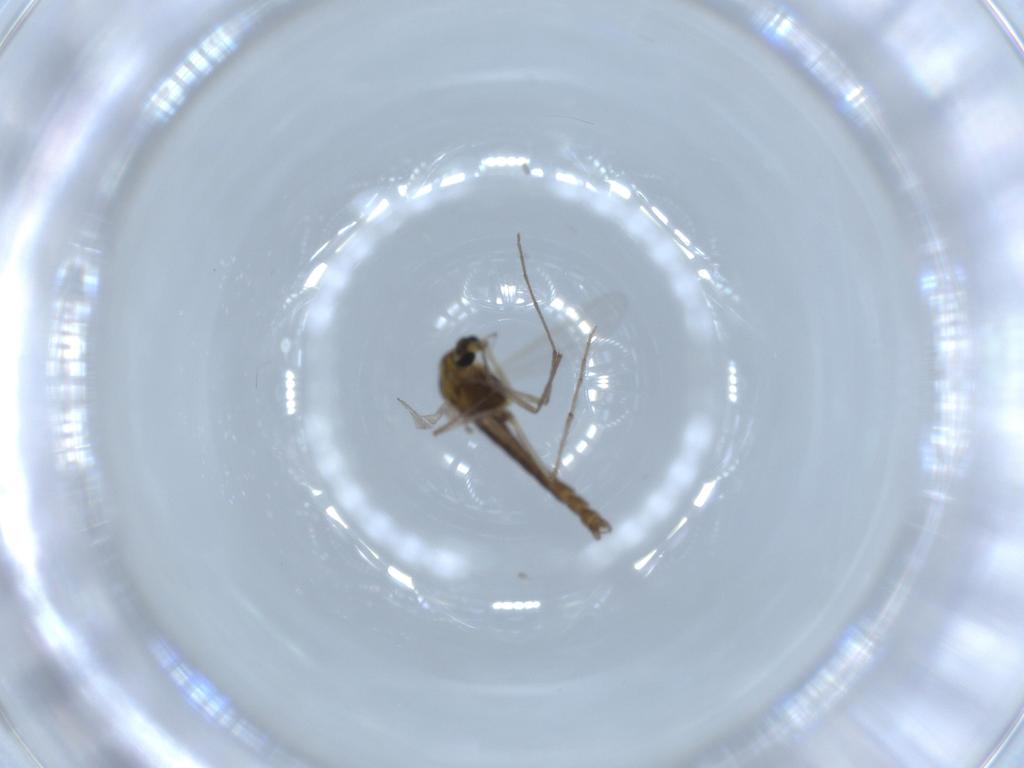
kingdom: Animalia
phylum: Arthropoda
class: Insecta
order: Diptera
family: Chironomidae
